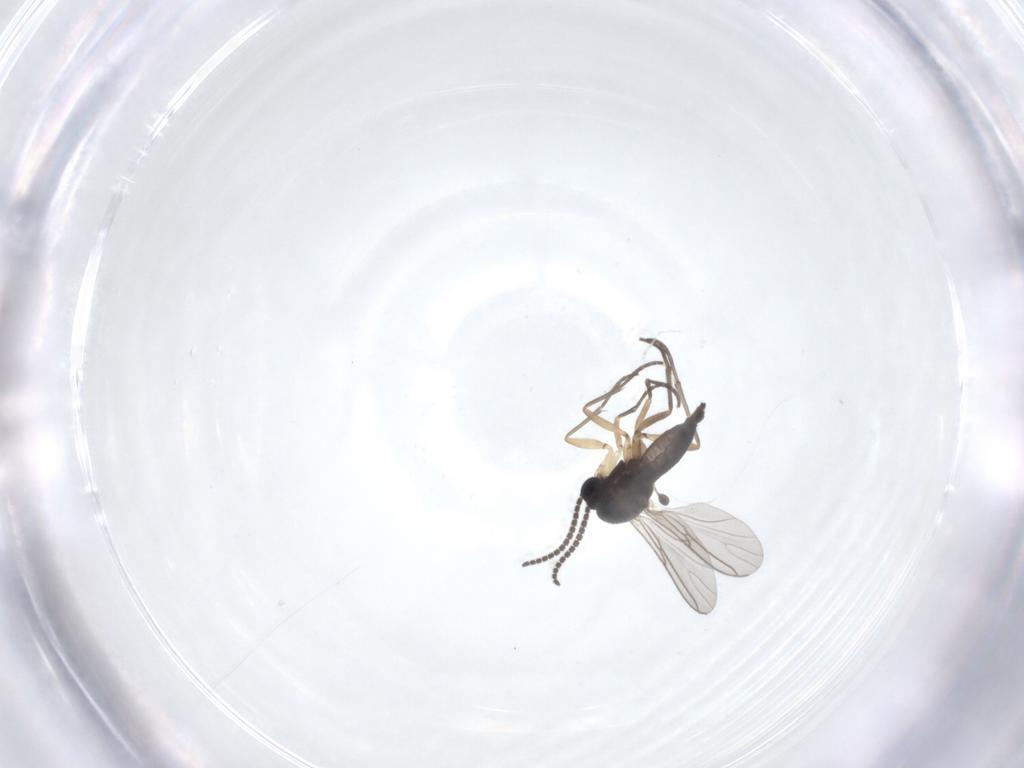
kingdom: Animalia
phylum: Arthropoda
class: Insecta
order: Diptera
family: Sciaridae
